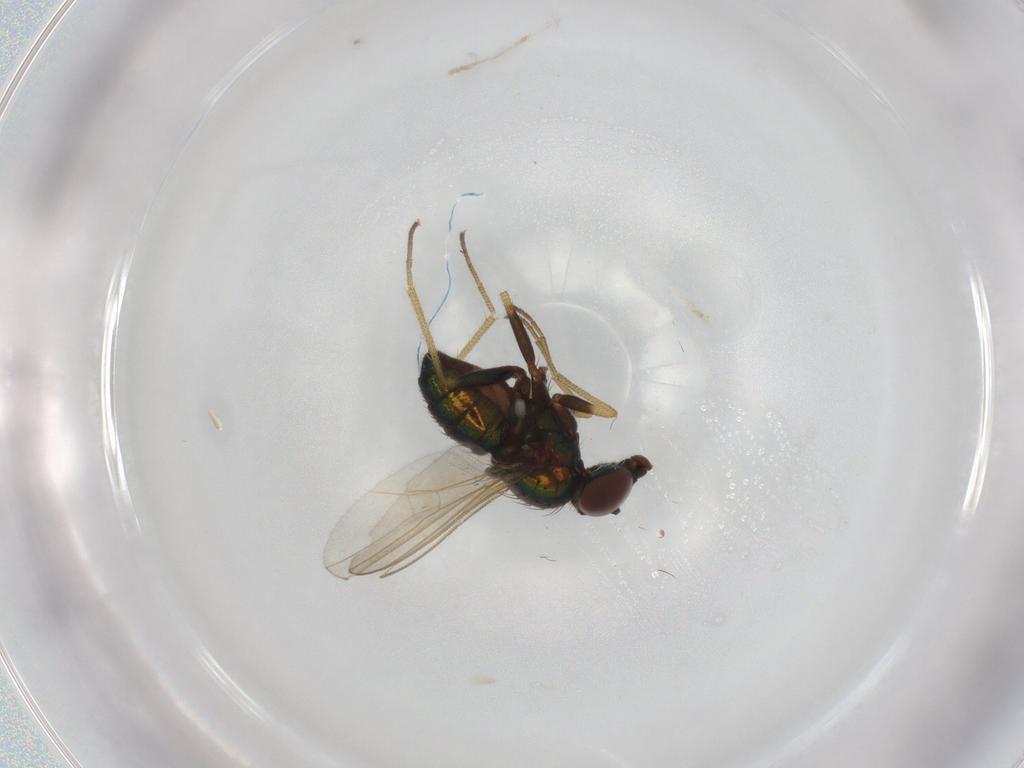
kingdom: Animalia
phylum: Arthropoda
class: Insecta
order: Diptera
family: Dolichopodidae
